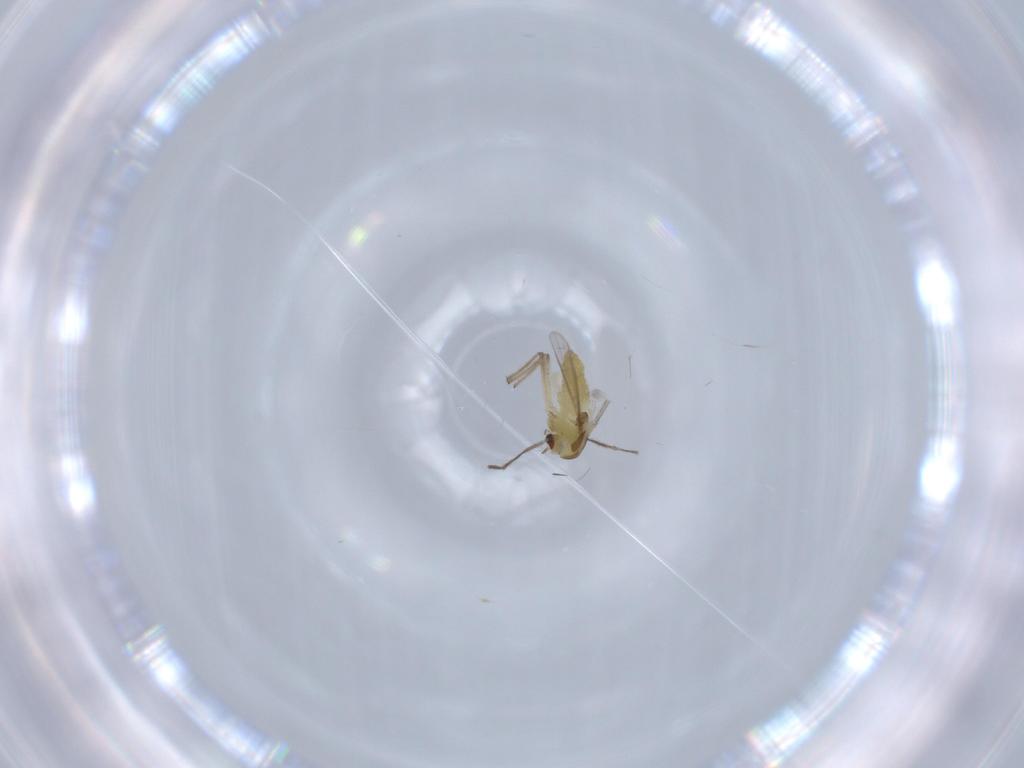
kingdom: Animalia
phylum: Arthropoda
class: Insecta
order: Diptera
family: Chironomidae
